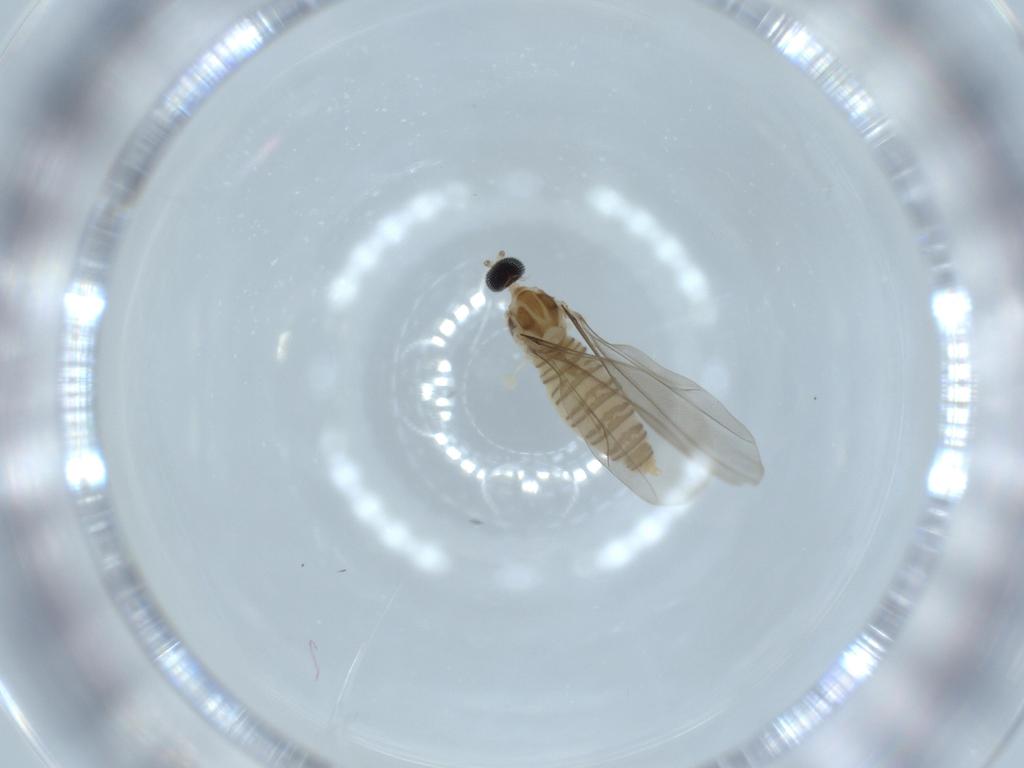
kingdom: Animalia
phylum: Arthropoda
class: Insecta
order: Diptera
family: Cecidomyiidae
